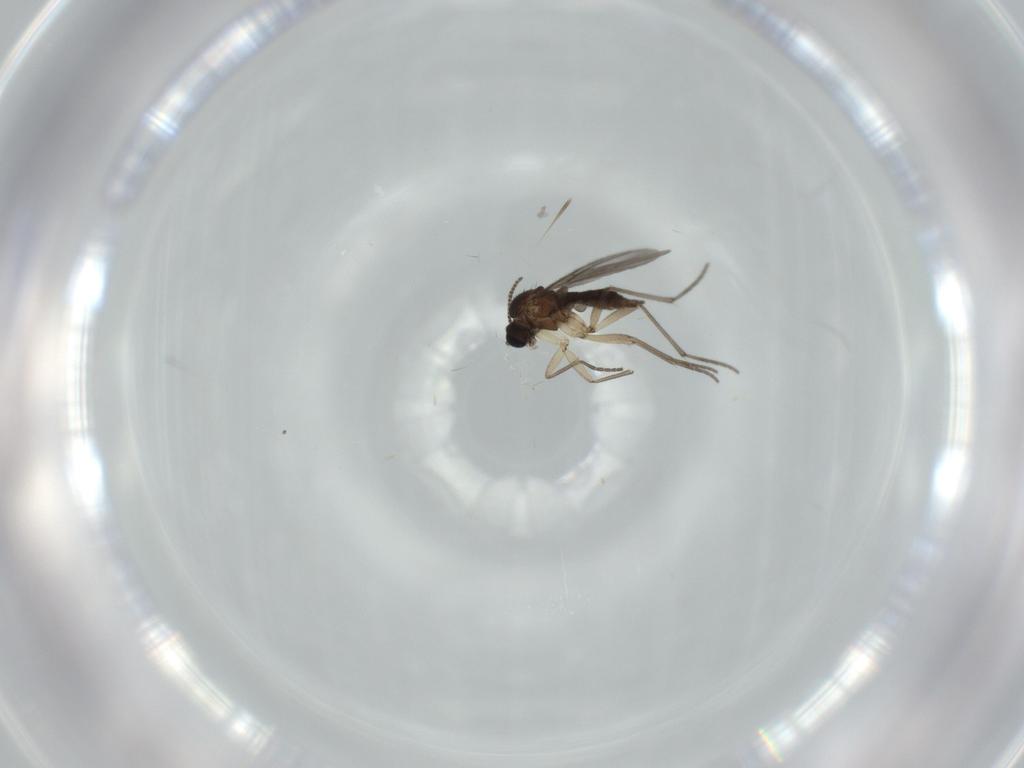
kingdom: Animalia
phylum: Arthropoda
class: Insecta
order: Diptera
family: Sciaridae
